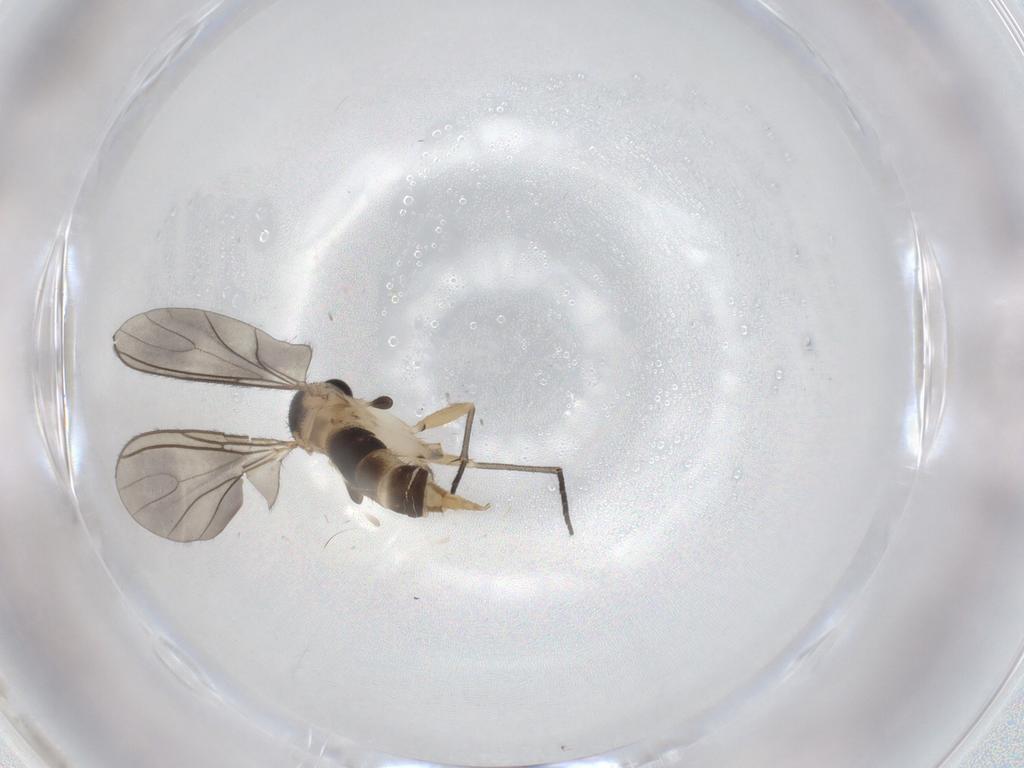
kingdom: Animalia
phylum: Arthropoda
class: Insecta
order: Diptera
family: Sciaridae
